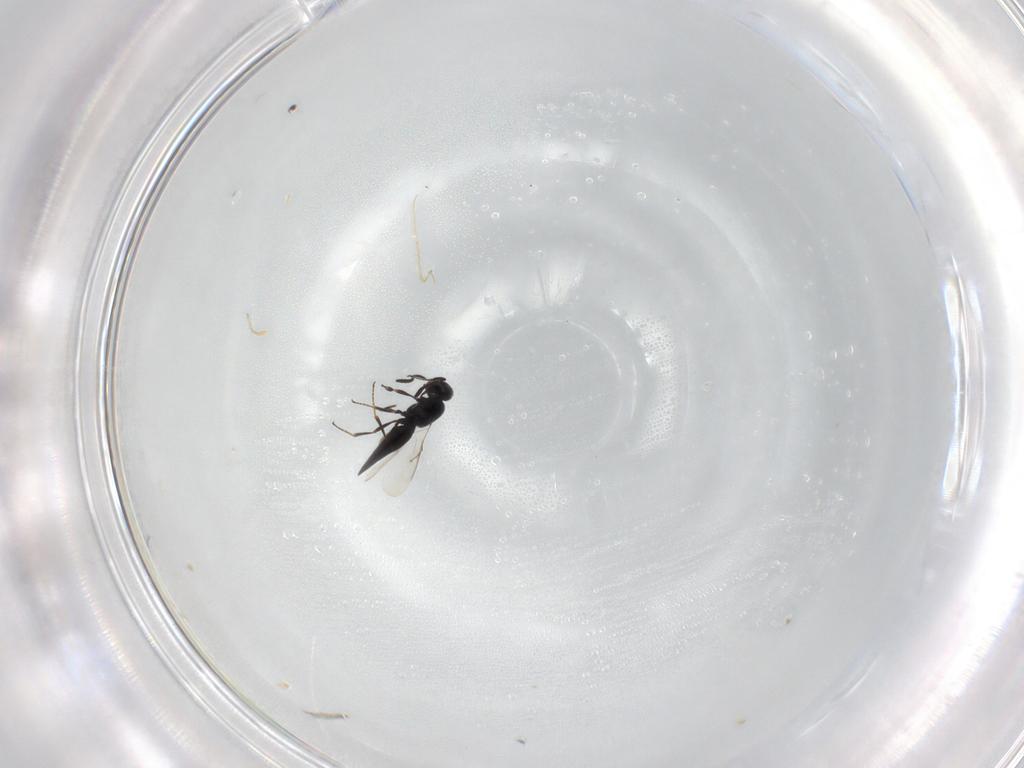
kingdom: Animalia
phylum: Arthropoda
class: Insecta
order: Hymenoptera
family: Scelionidae
